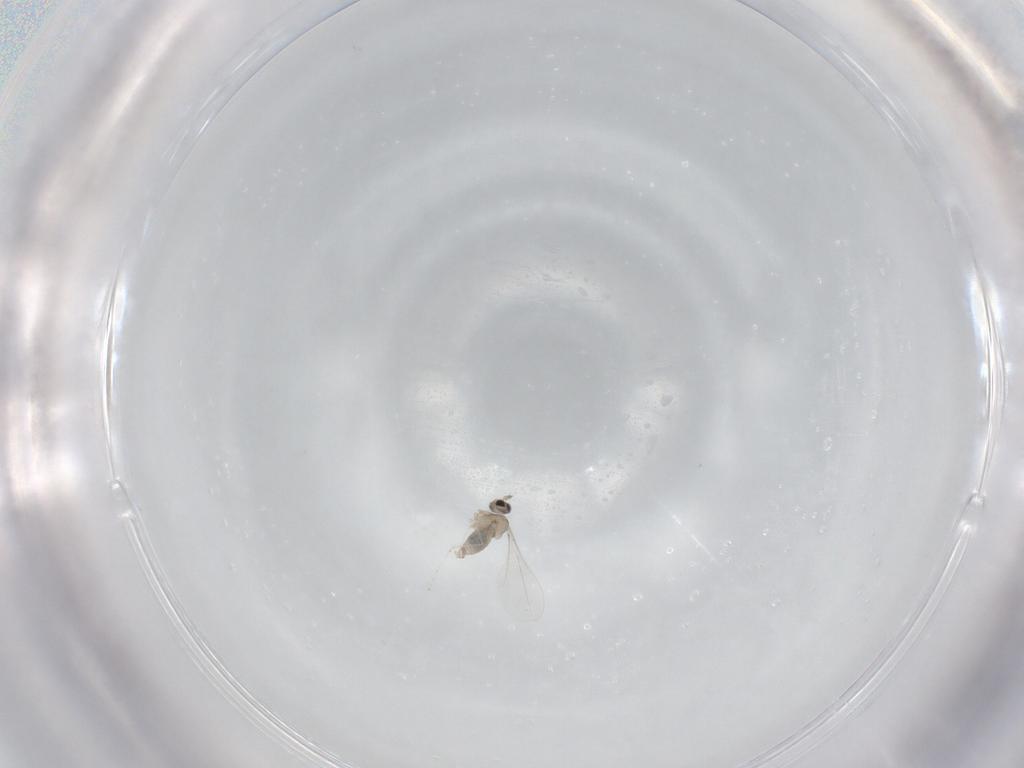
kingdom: Animalia
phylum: Arthropoda
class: Insecta
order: Diptera
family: Cecidomyiidae
